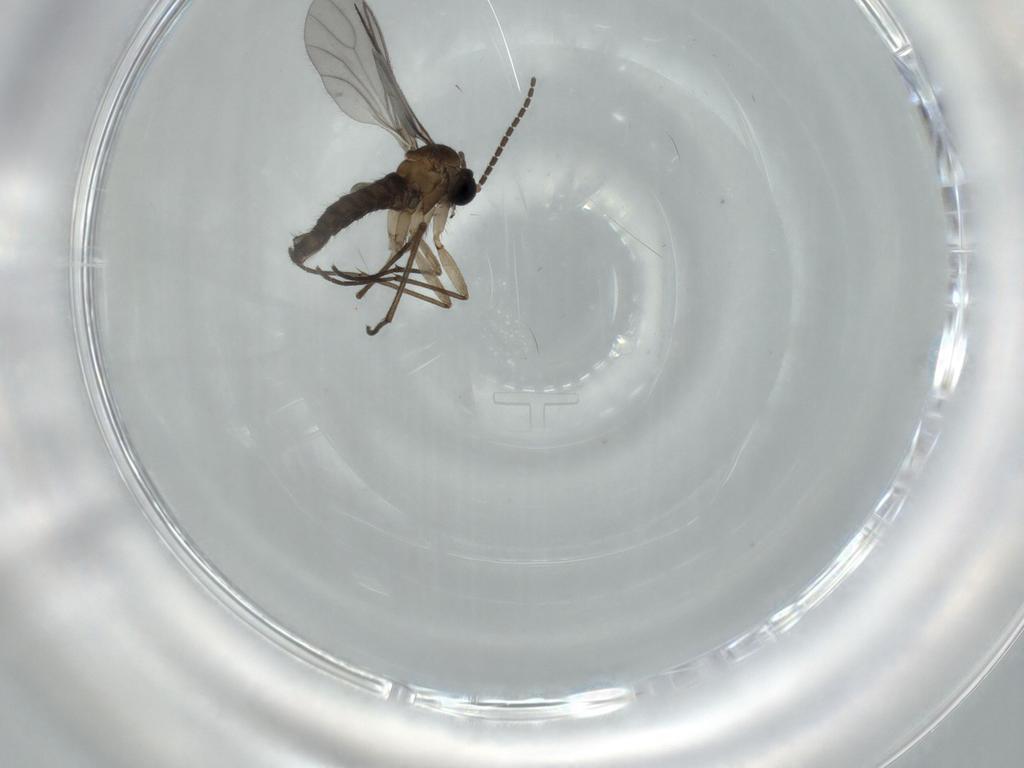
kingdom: Animalia
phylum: Arthropoda
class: Insecta
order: Diptera
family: Sciaridae
